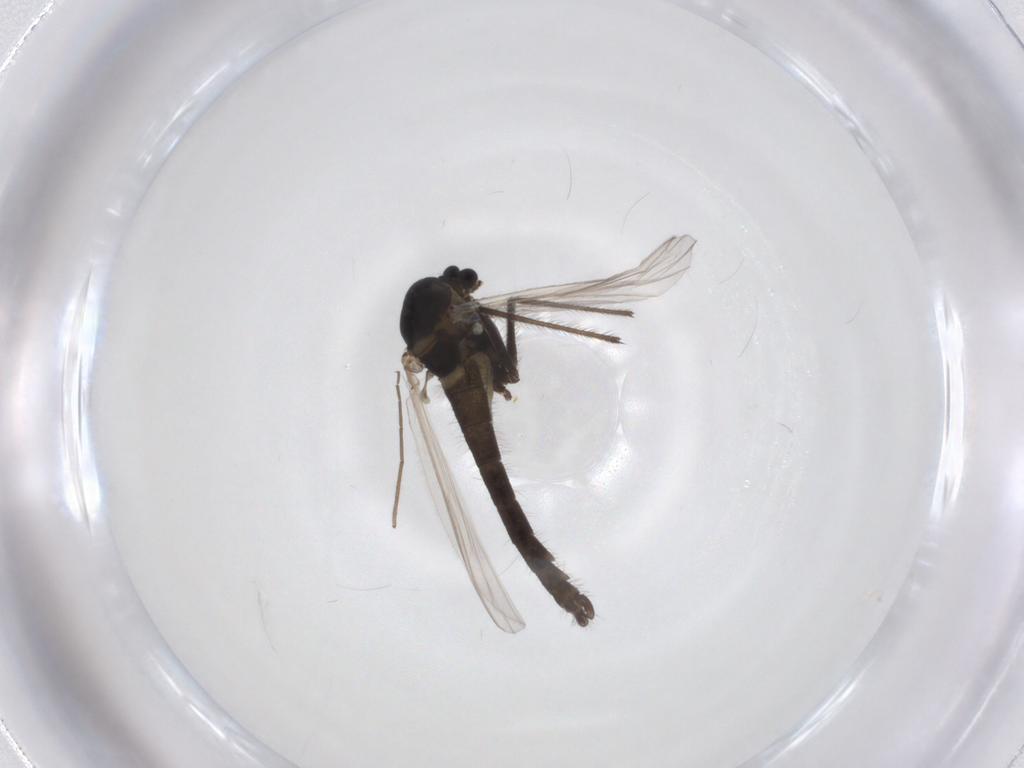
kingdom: Animalia
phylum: Arthropoda
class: Insecta
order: Diptera
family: Chironomidae
